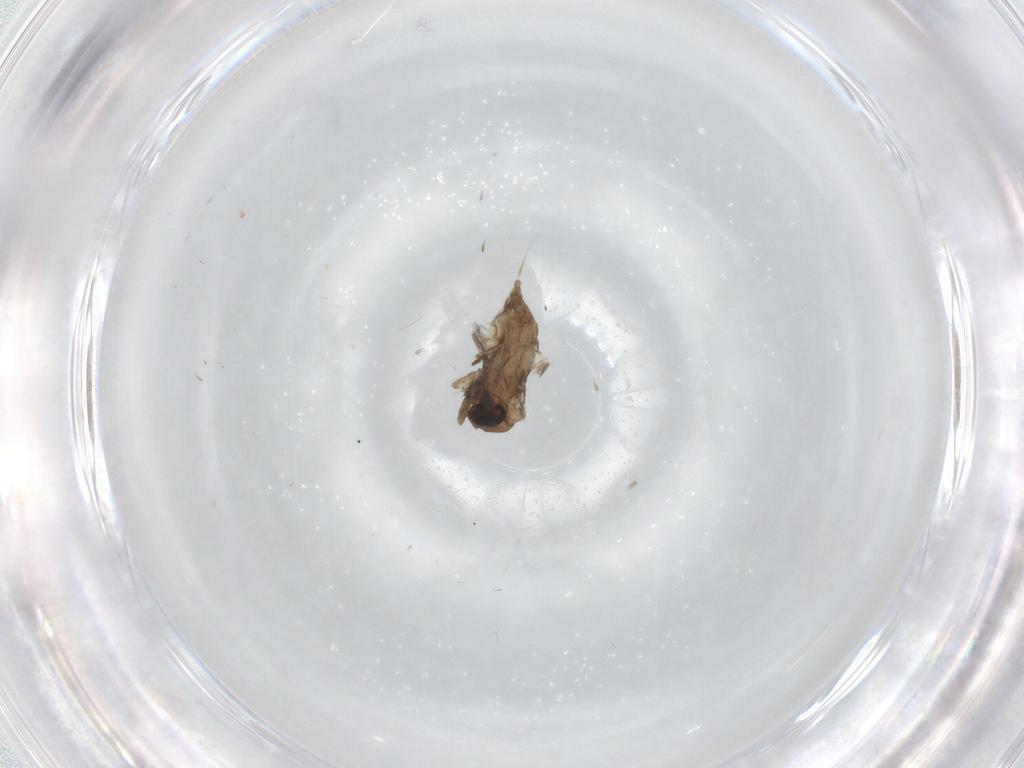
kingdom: Animalia
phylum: Arthropoda
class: Insecta
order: Diptera
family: Ceratopogonidae
